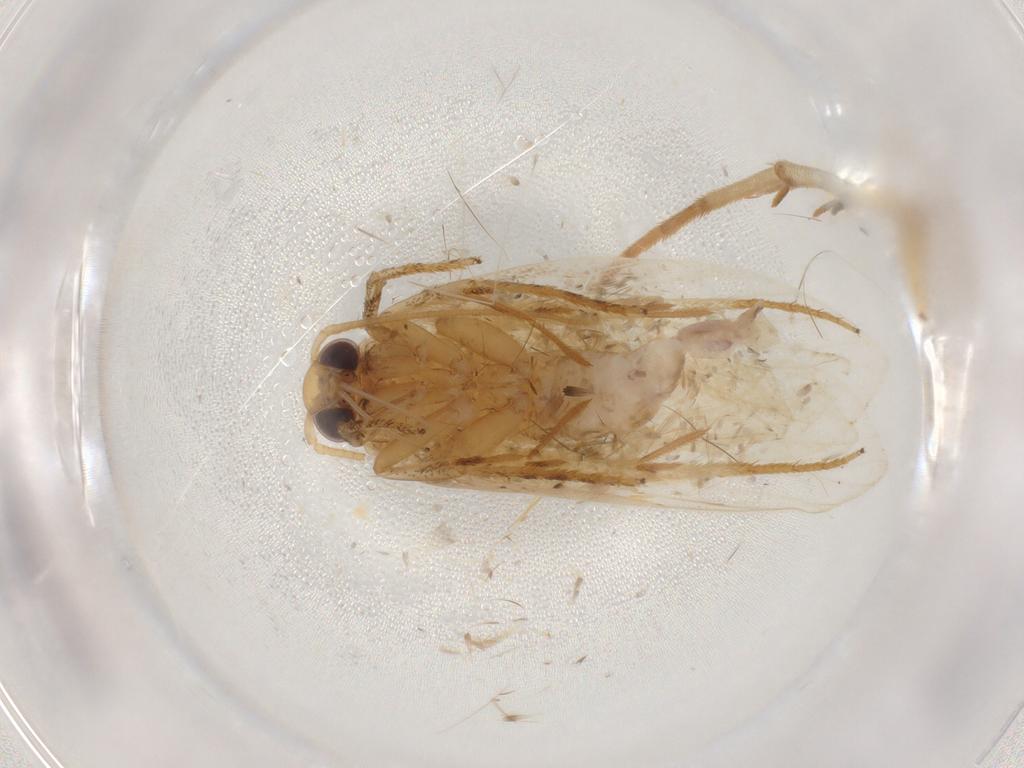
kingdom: Animalia
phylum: Arthropoda
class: Insecta
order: Lepidoptera
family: Depressariidae
